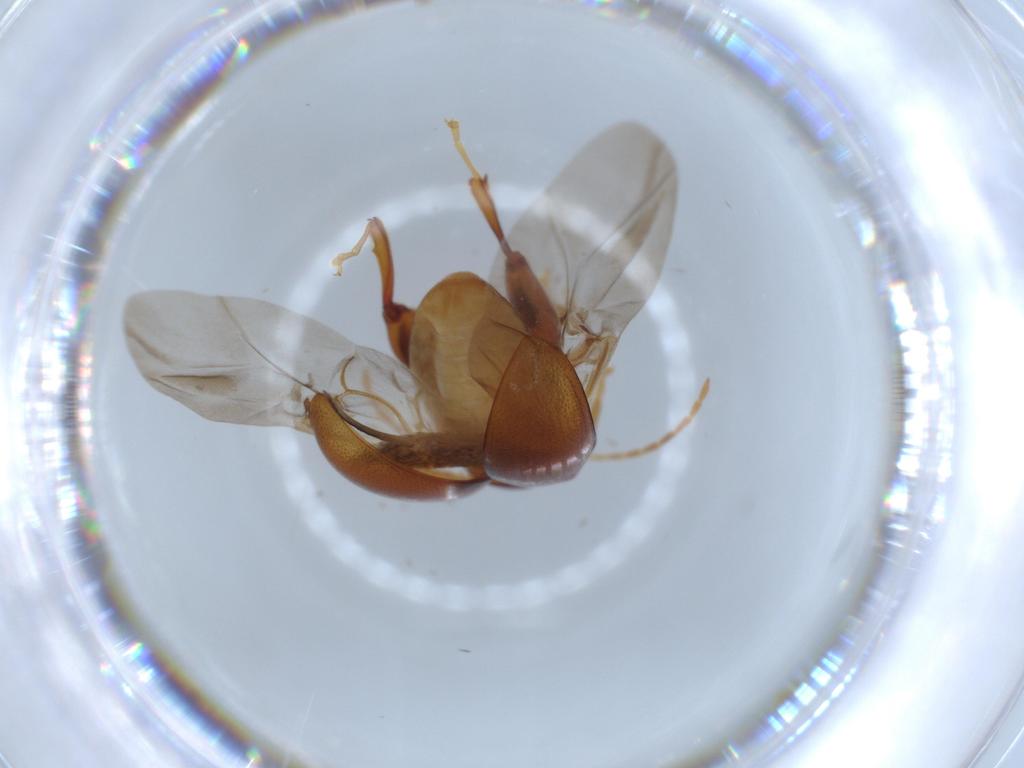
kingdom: Animalia
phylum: Arthropoda
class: Insecta
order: Coleoptera
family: Chrysomelidae
